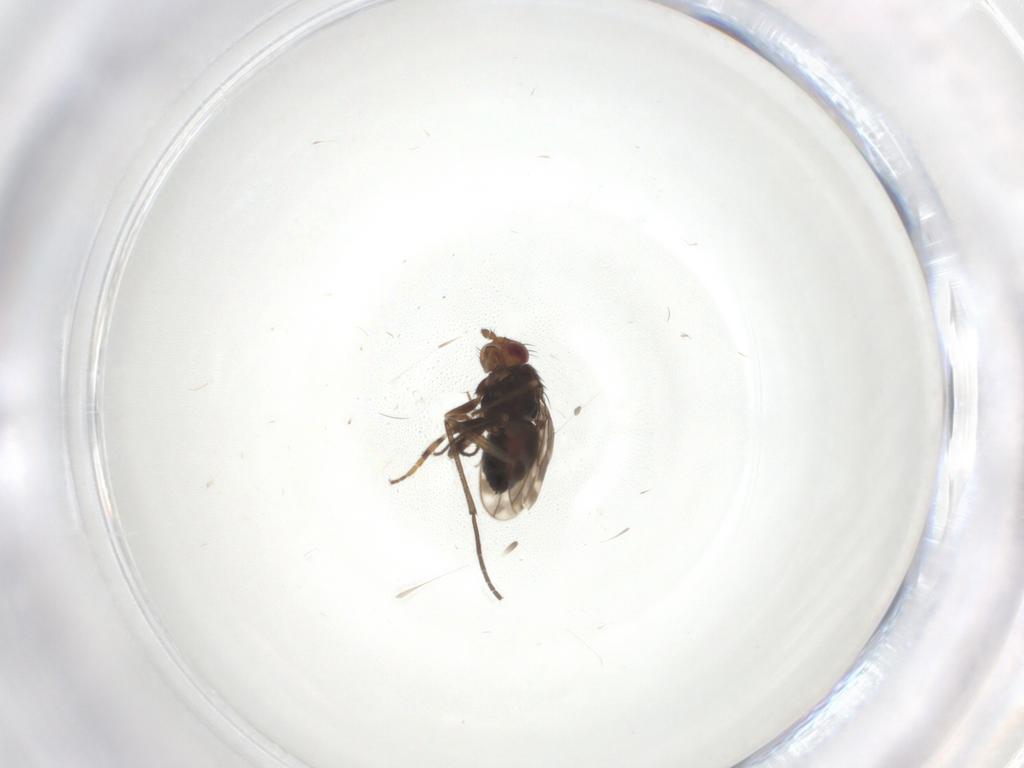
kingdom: Animalia
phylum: Arthropoda
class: Insecta
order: Diptera
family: Sphaeroceridae
